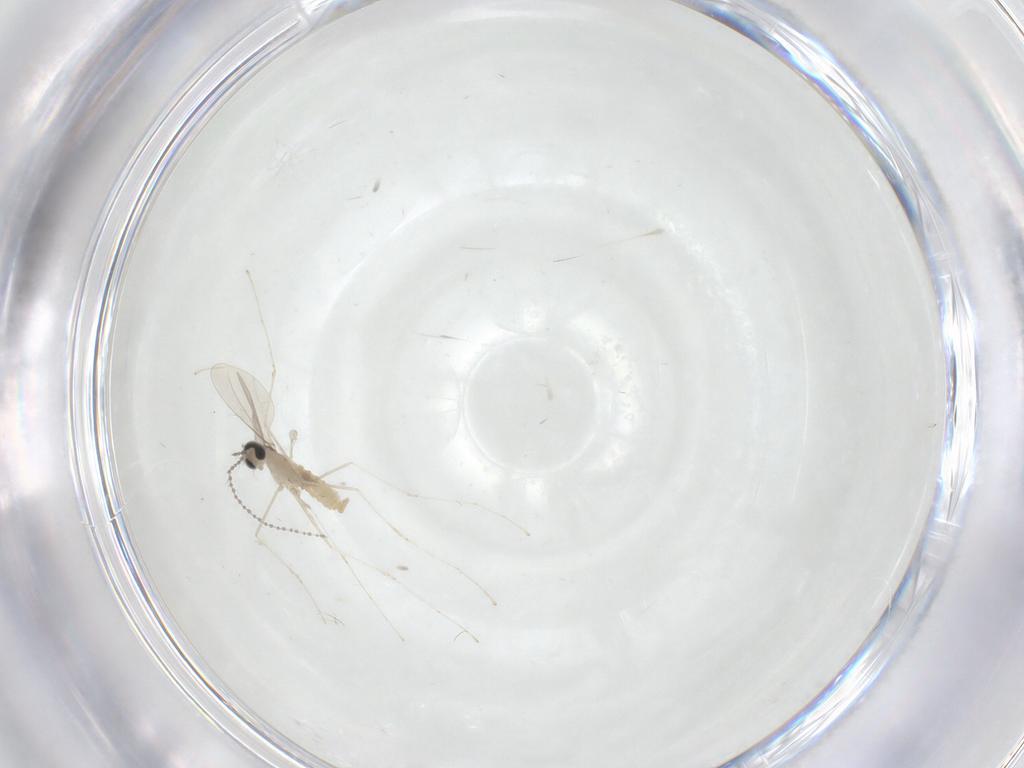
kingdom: Animalia
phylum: Arthropoda
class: Insecta
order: Diptera
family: Cecidomyiidae
